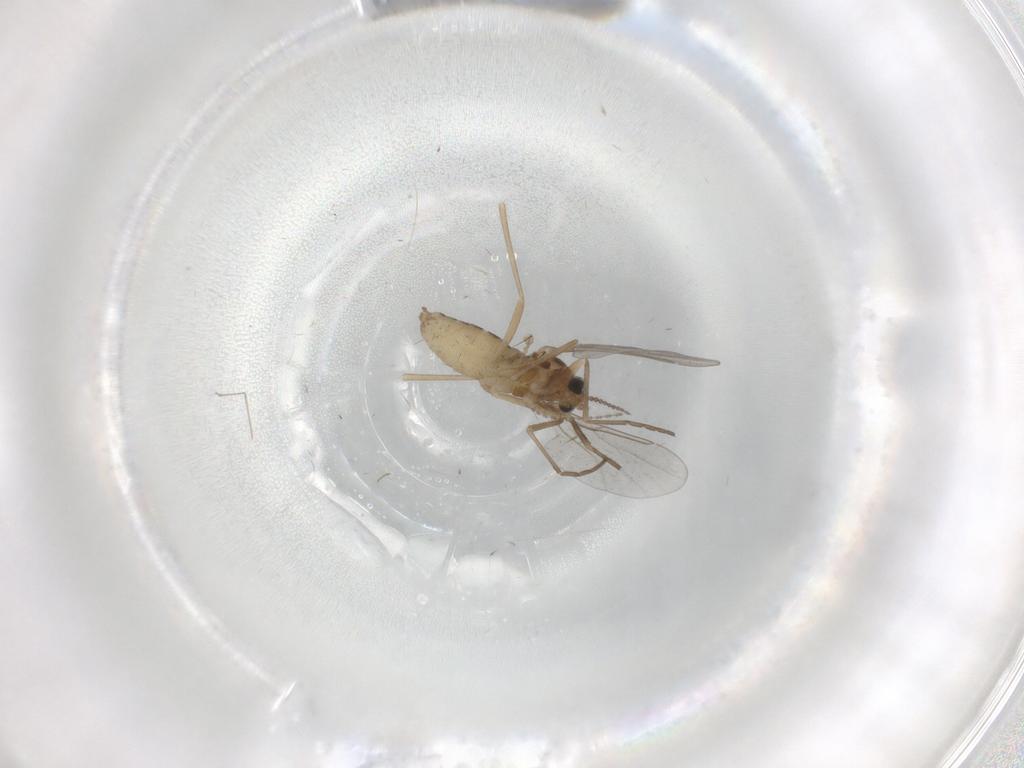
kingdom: Animalia
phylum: Arthropoda
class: Insecta
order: Diptera
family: Cecidomyiidae
